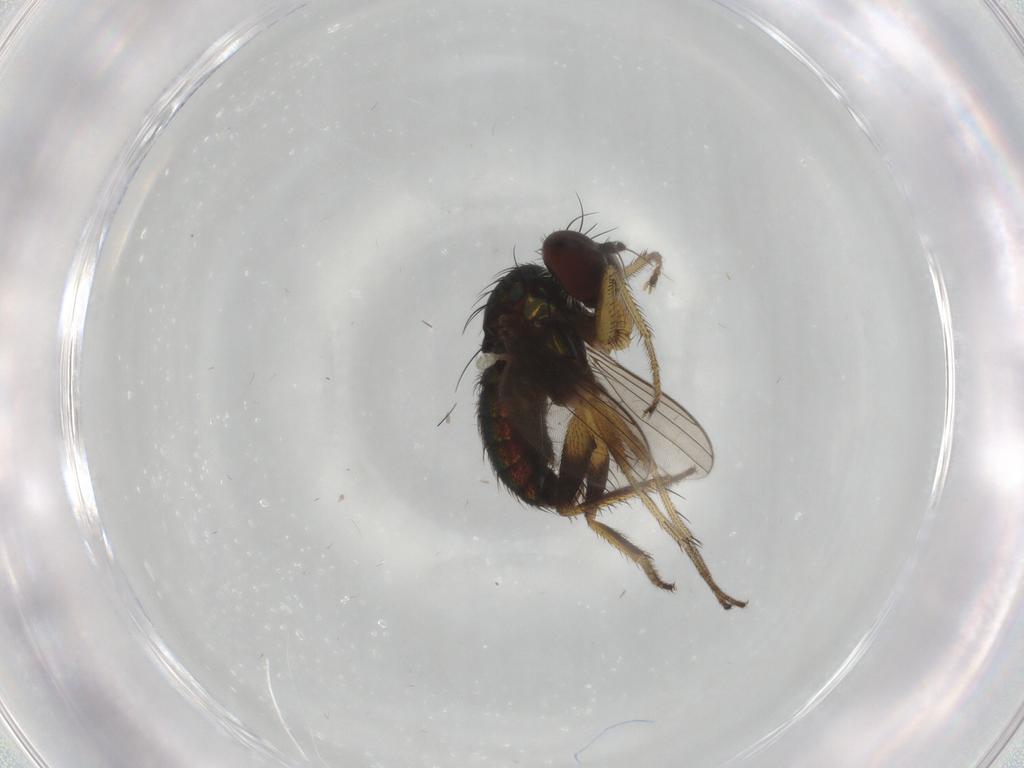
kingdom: Animalia
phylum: Arthropoda
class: Insecta
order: Diptera
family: Dolichopodidae
